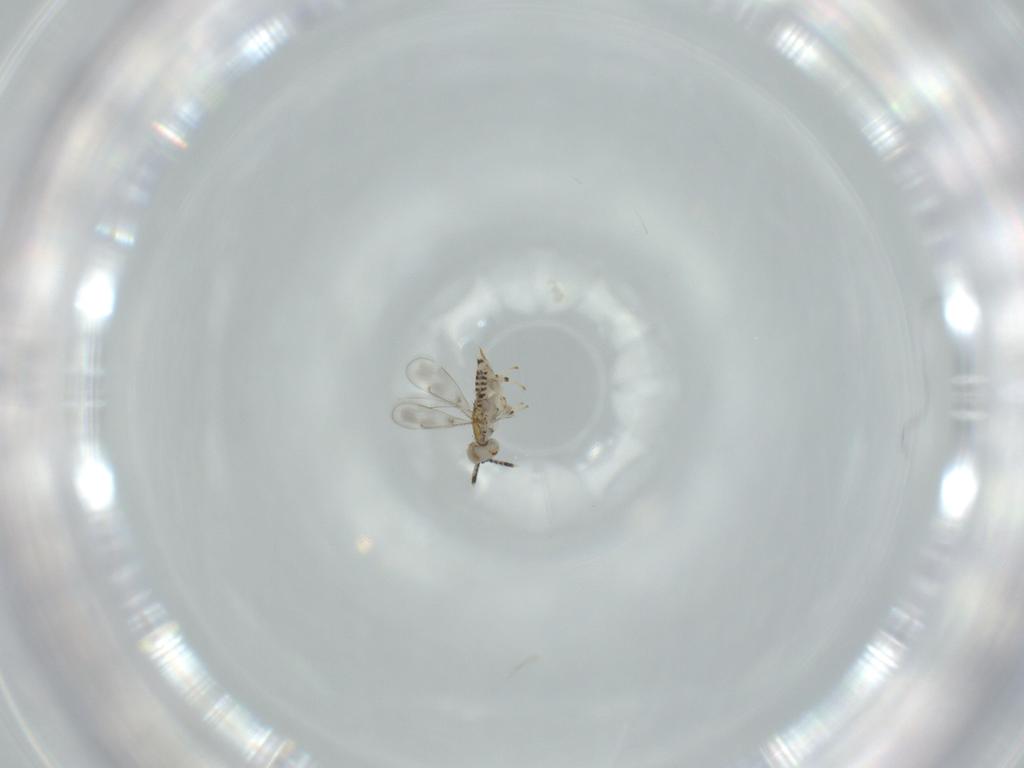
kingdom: Animalia
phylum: Arthropoda
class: Insecta
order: Hymenoptera
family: Aphelinidae
